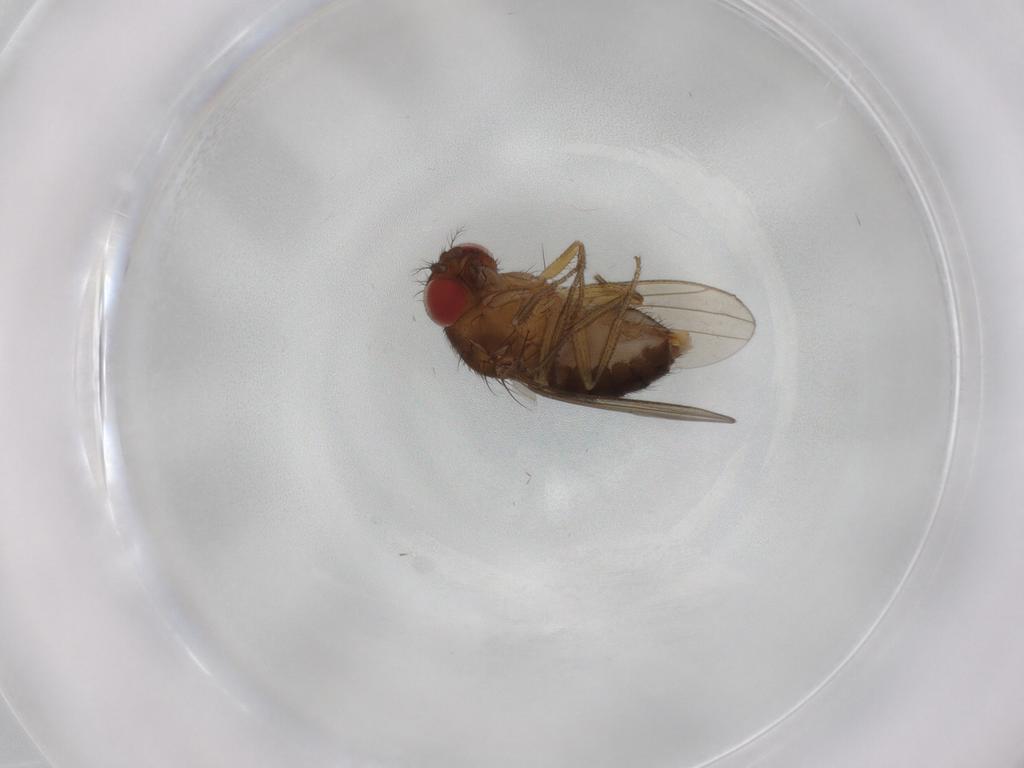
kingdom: Animalia
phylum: Arthropoda
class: Insecta
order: Diptera
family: Drosophilidae
